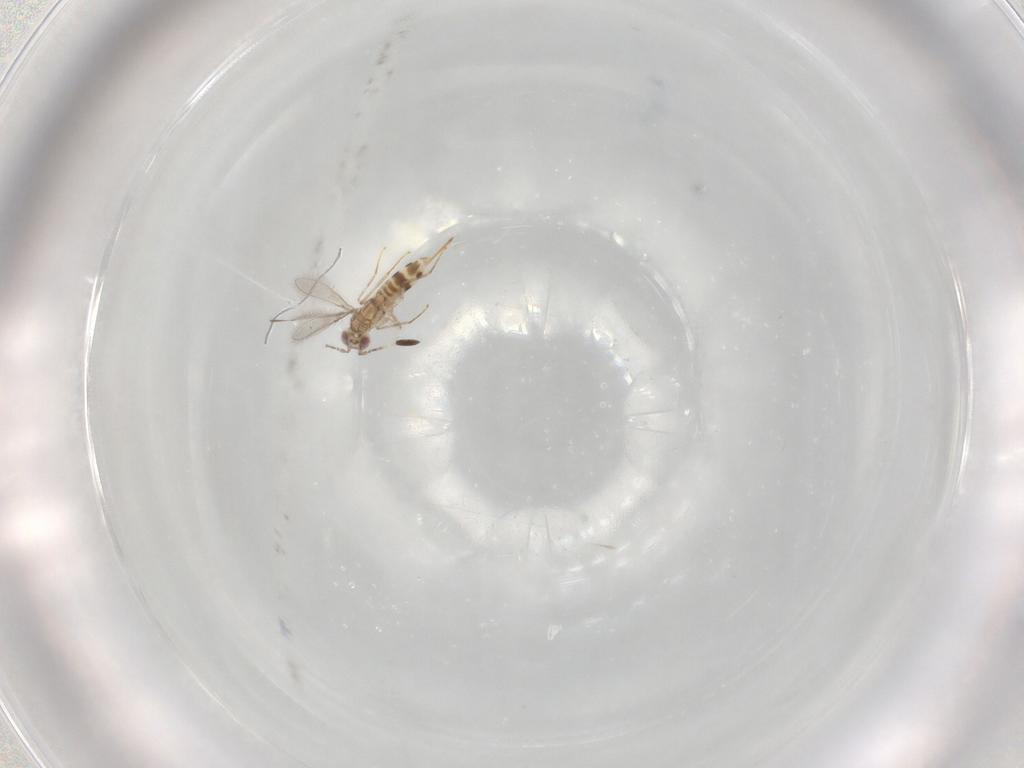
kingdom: Animalia
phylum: Arthropoda
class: Insecta
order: Hymenoptera
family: Mymaridae
